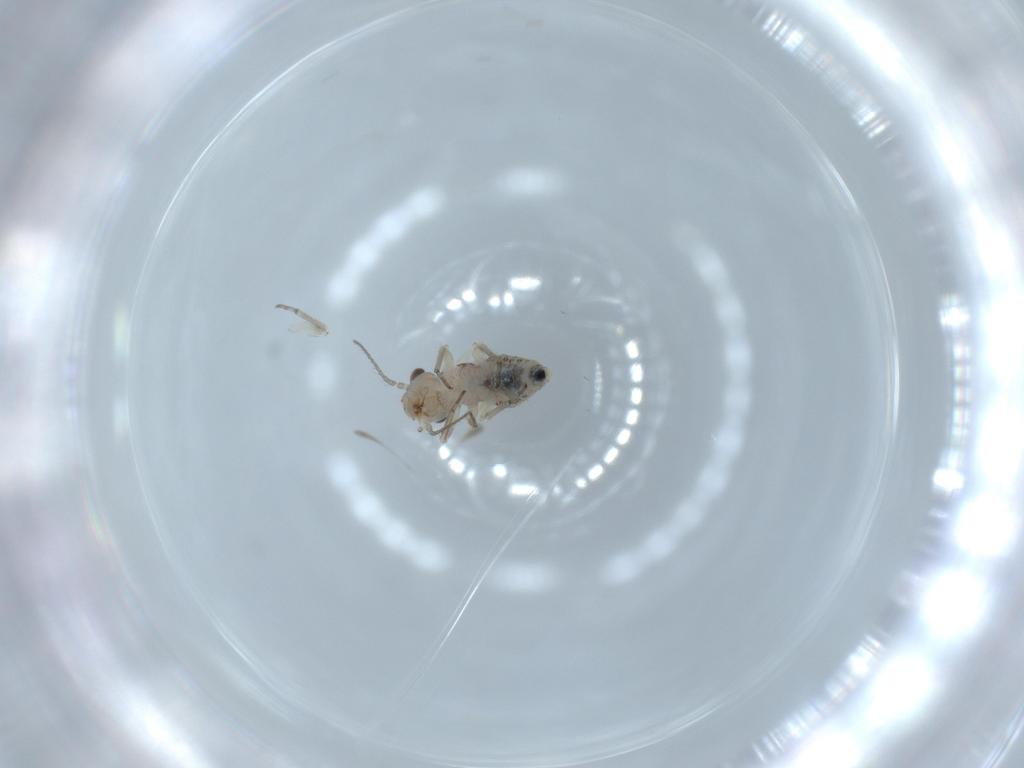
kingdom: Animalia
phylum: Arthropoda
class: Insecta
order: Psocodea
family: Psocidae
